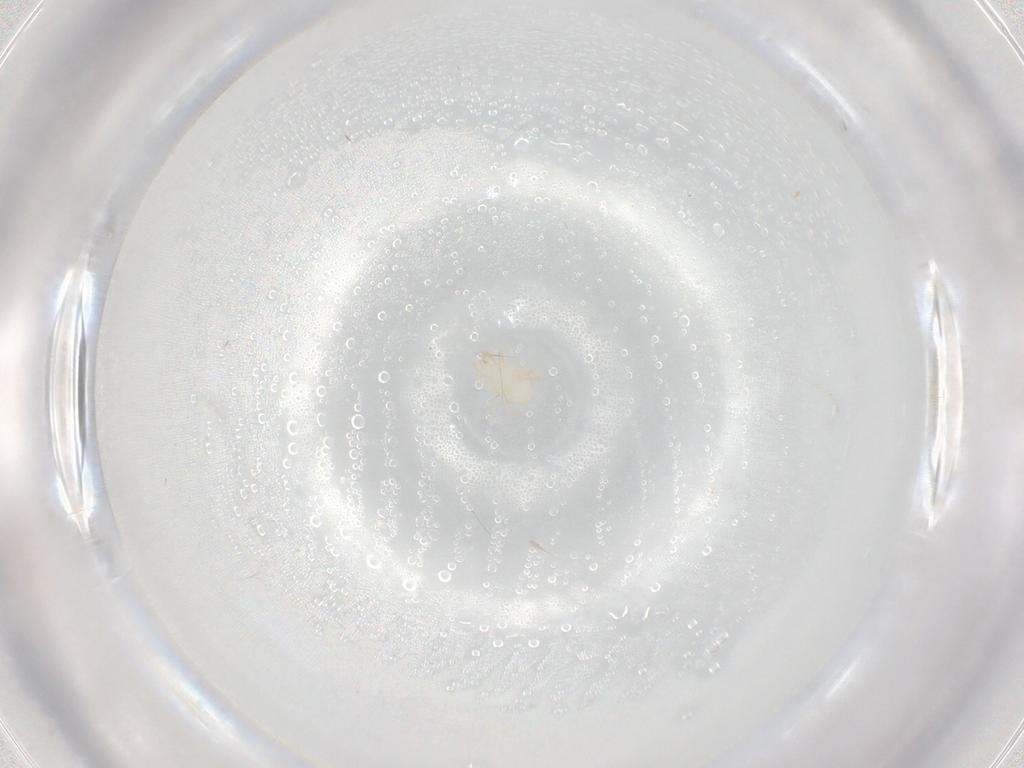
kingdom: Animalia
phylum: Arthropoda
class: Arachnida
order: Mesostigmata
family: Melicharidae
